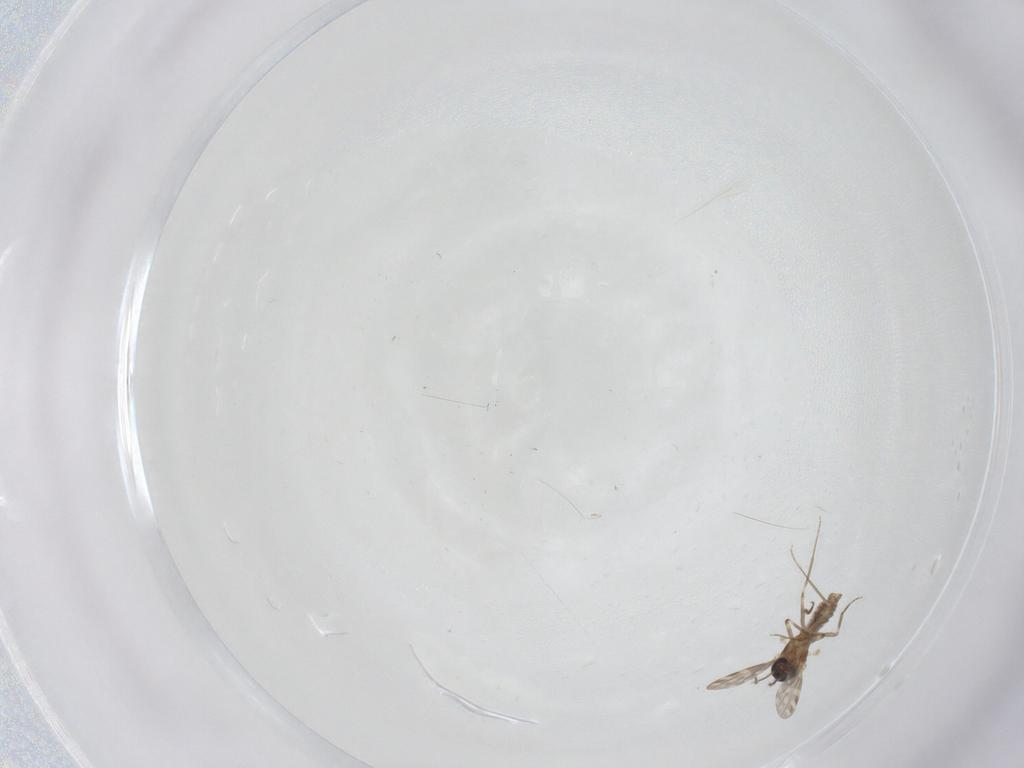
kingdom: Animalia
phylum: Arthropoda
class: Insecta
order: Diptera
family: Ceratopogonidae
